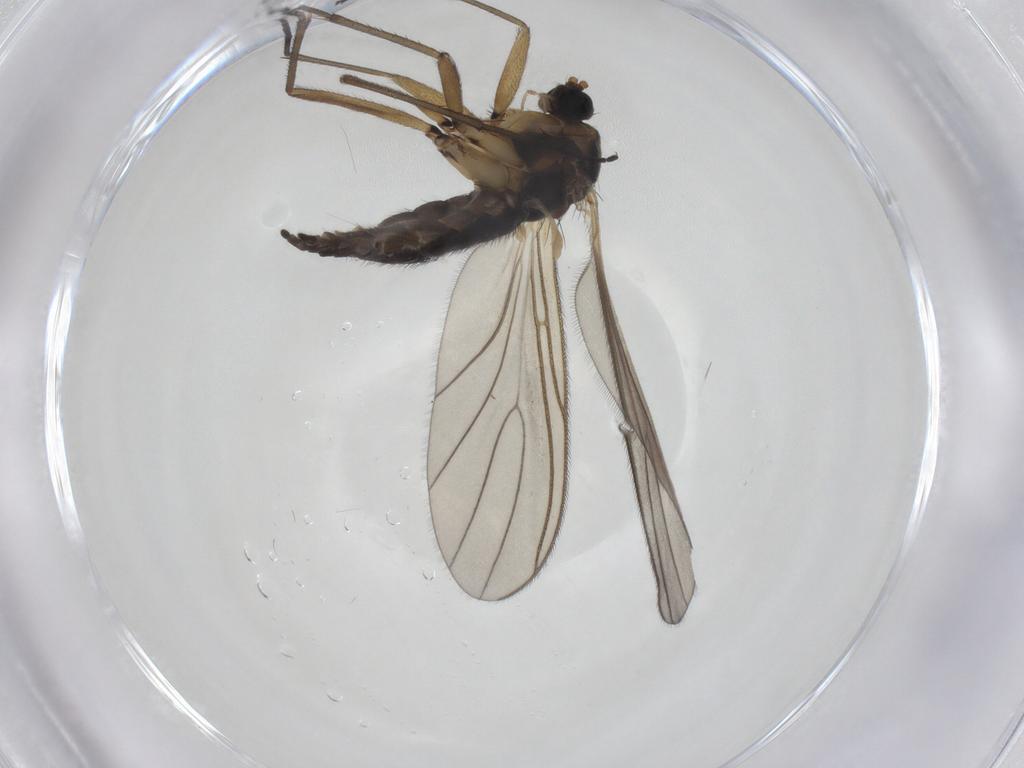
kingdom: Animalia
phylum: Arthropoda
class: Insecta
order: Diptera
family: Sciaridae
